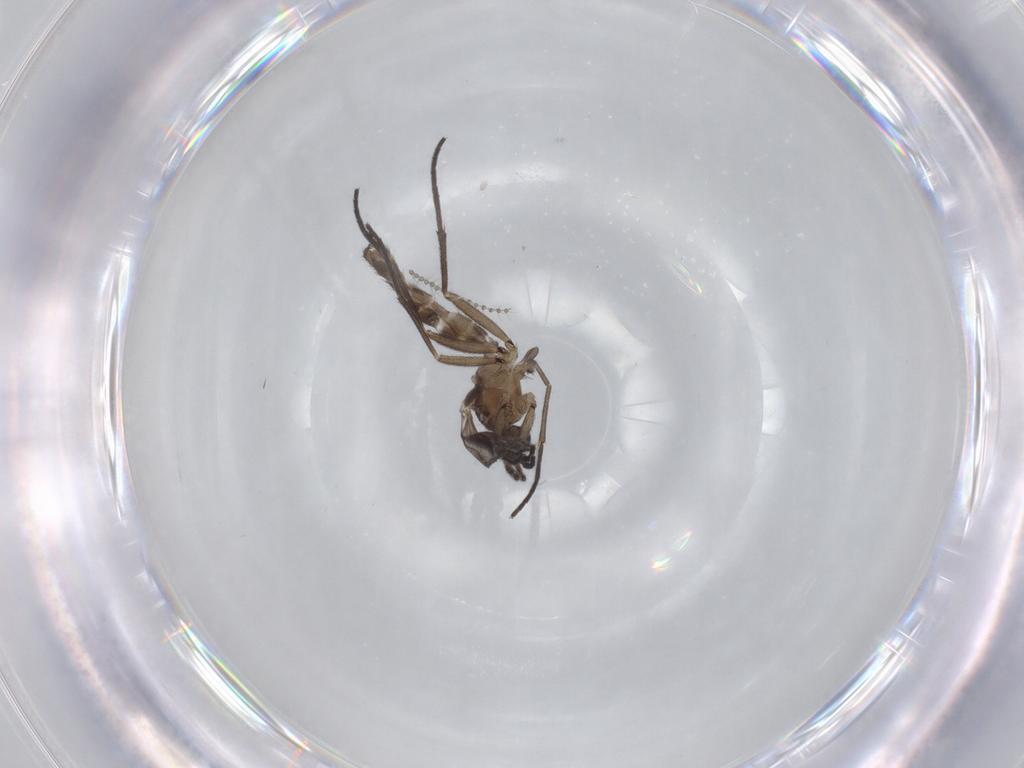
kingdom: Animalia
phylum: Arthropoda
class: Insecta
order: Diptera
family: Sciaridae
